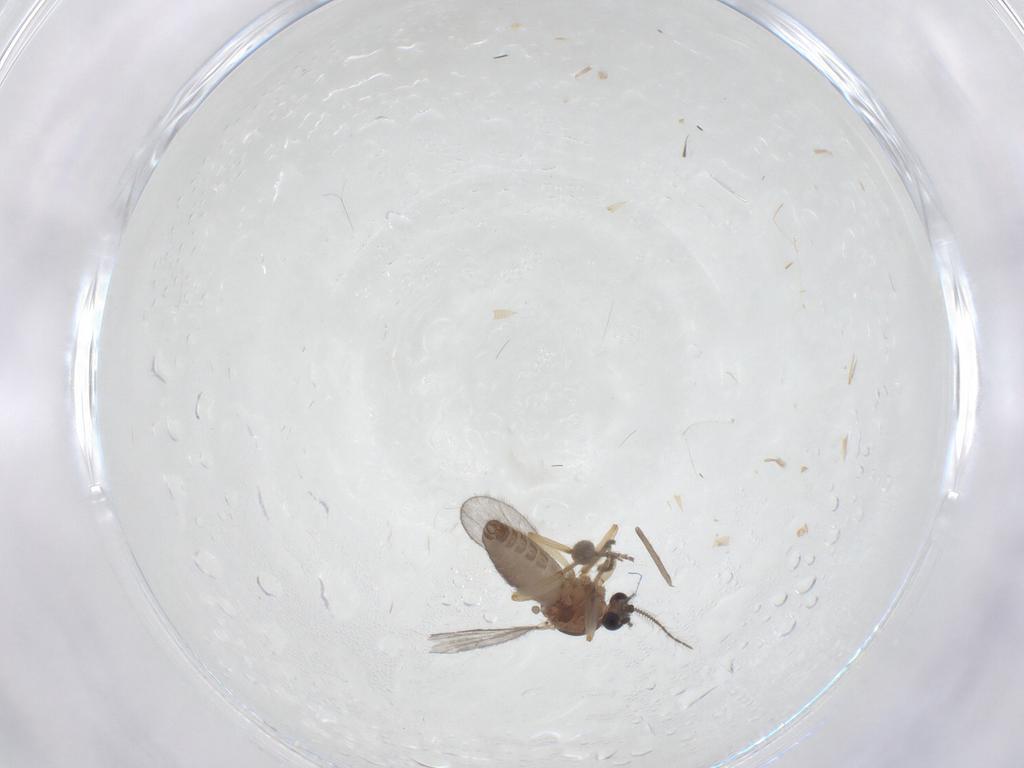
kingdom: Animalia
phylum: Arthropoda
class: Insecta
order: Diptera
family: Ceratopogonidae
